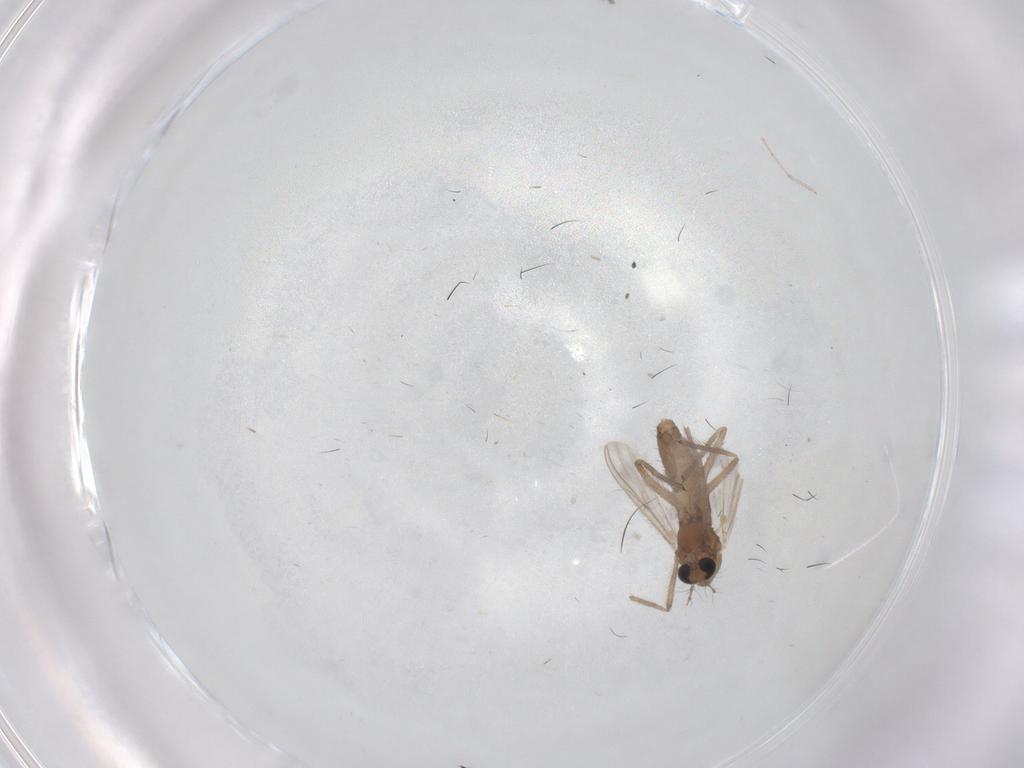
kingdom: Animalia
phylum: Arthropoda
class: Insecta
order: Diptera
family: Chironomidae
